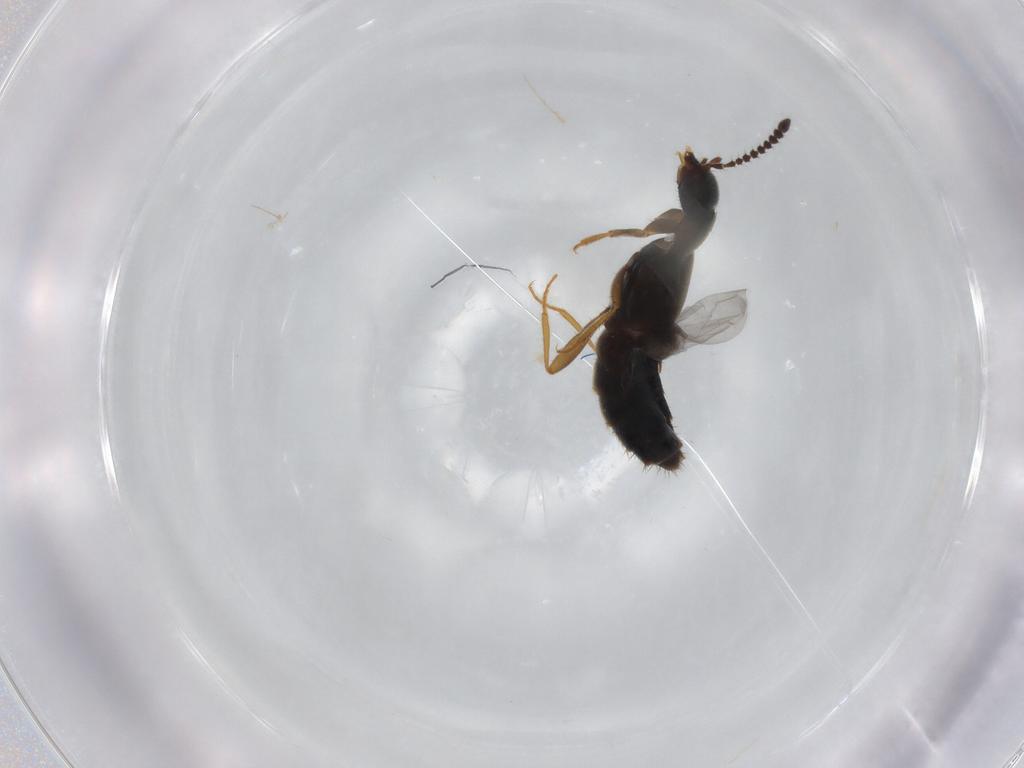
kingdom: Animalia
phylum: Arthropoda
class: Insecta
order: Coleoptera
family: Staphylinidae
